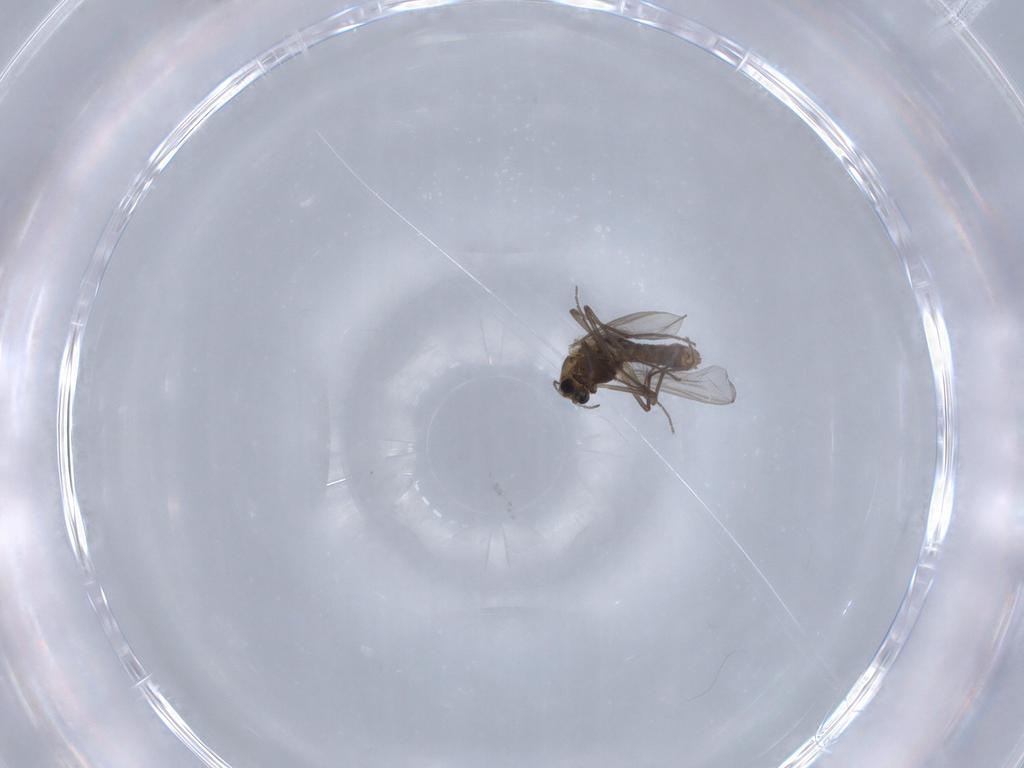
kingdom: Animalia
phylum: Arthropoda
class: Insecta
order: Diptera
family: Chironomidae
